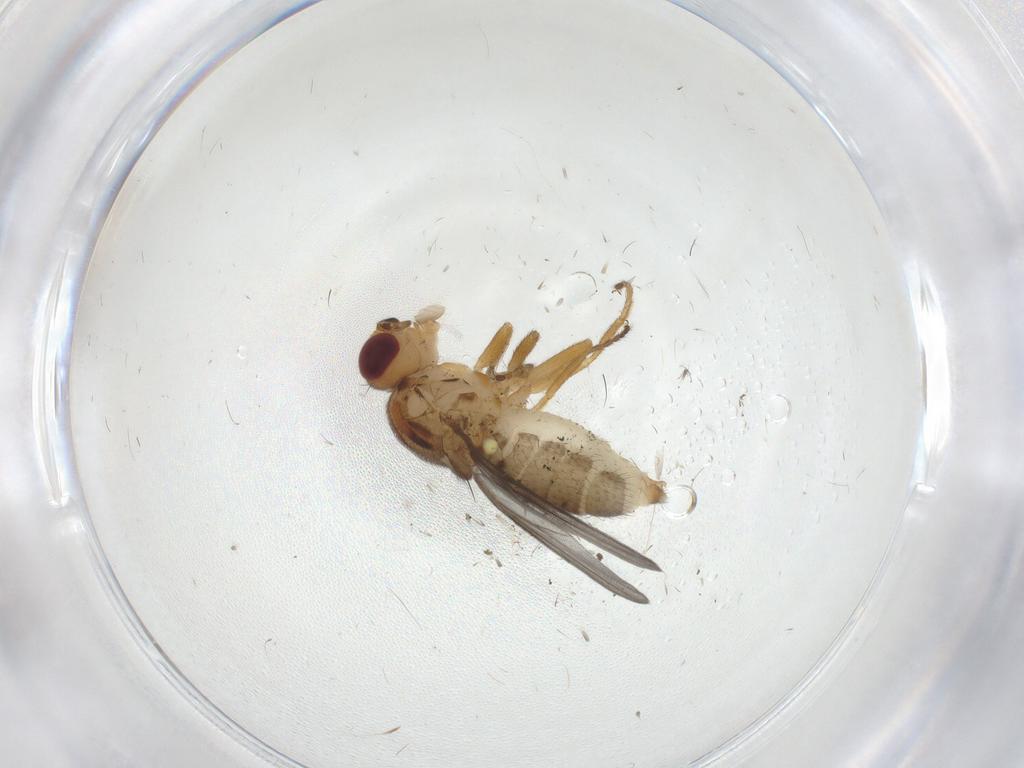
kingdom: Animalia
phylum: Arthropoda
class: Insecta
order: Diptera
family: Chloropidae
